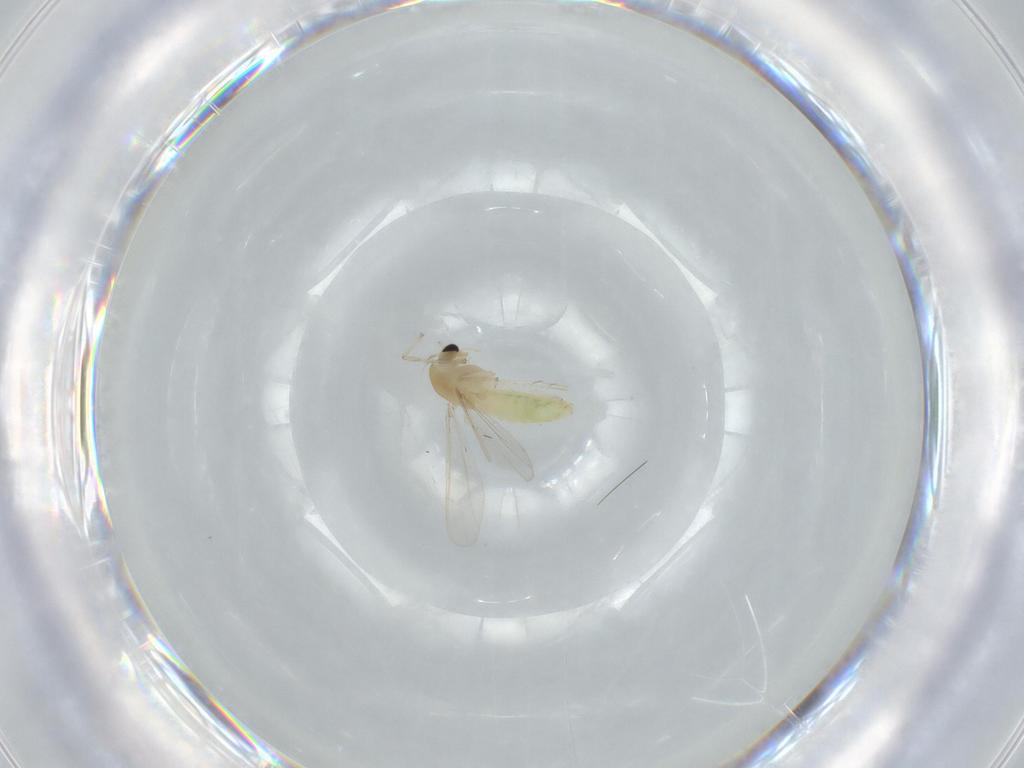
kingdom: Animalia
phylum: Arthropoda
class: Insecta
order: Diptera
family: Chironomidae
